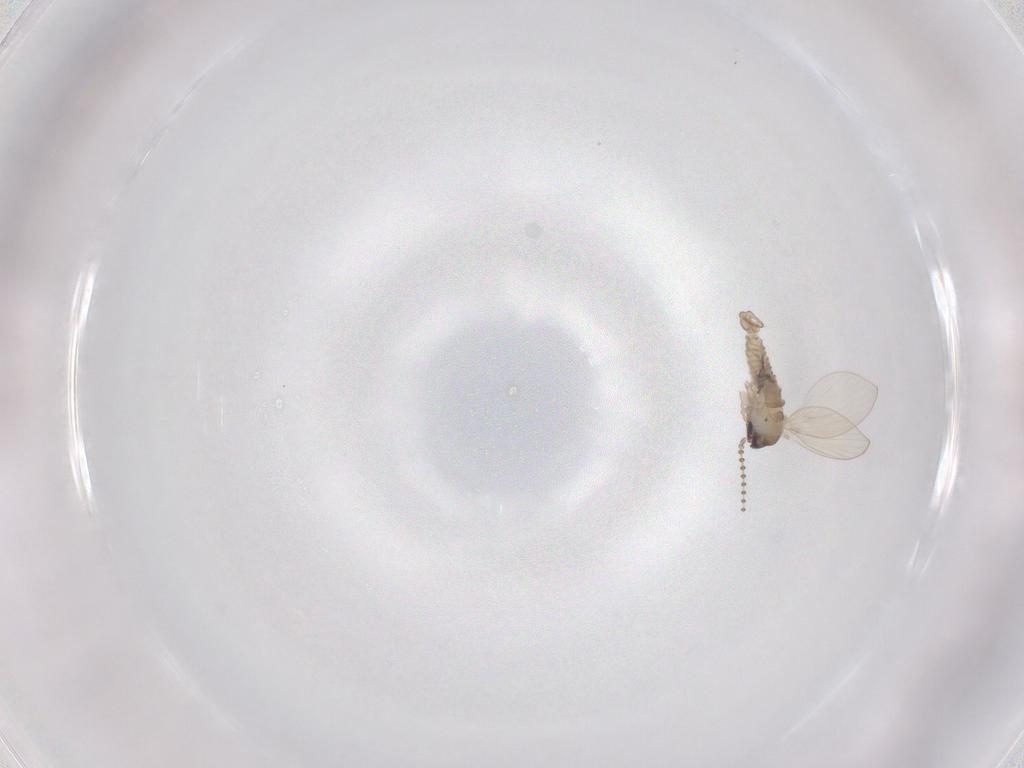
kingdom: Animalia
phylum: Arthropoda
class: Insecta
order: Diptera
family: Psychodidae
